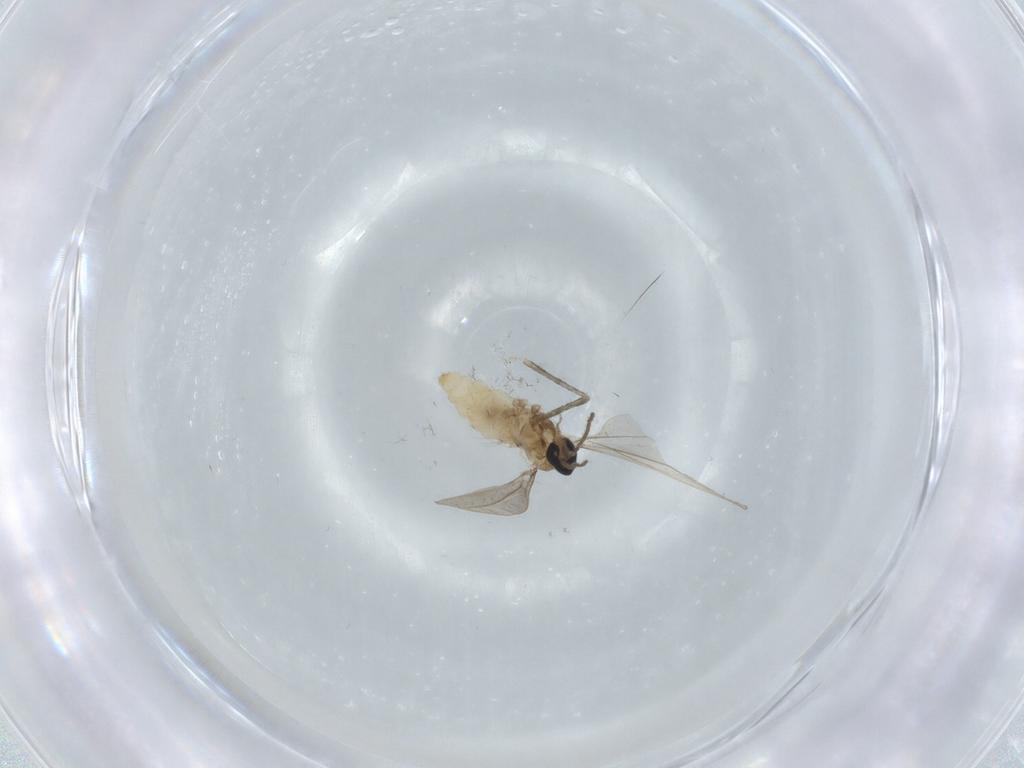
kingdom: Animalia
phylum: Arthropoda
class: Insecta
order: Diptera
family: Cecidomyiidae
